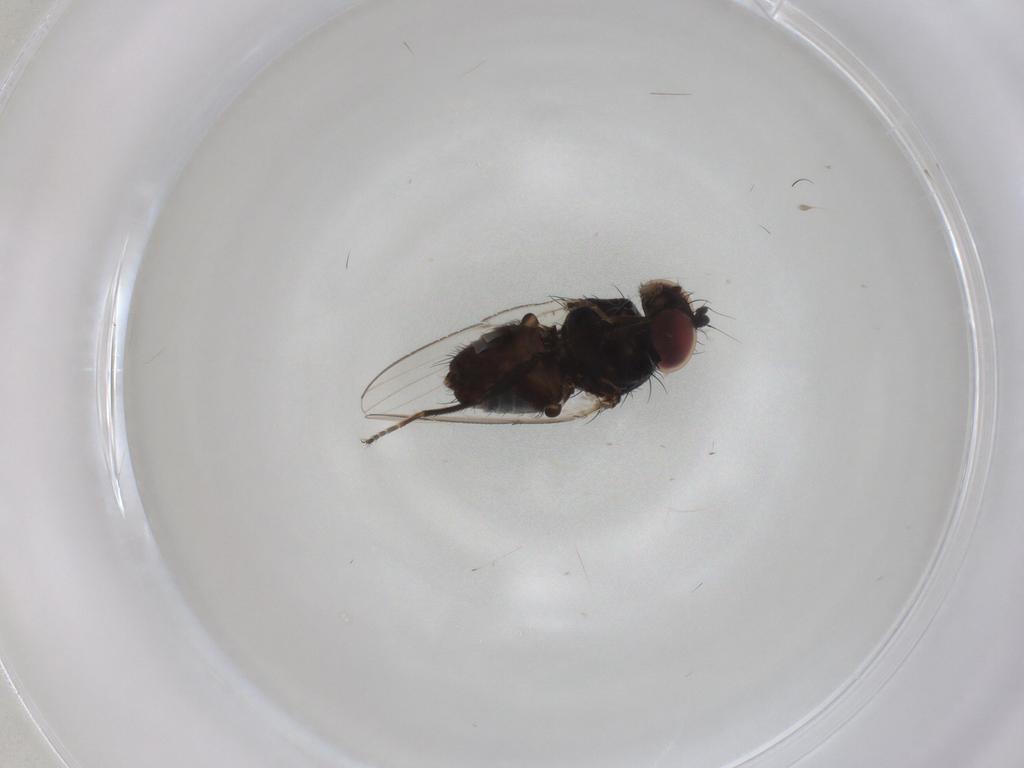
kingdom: Animalia
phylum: Arthropoda
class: Insecta
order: Diptera
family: Milichiidae
